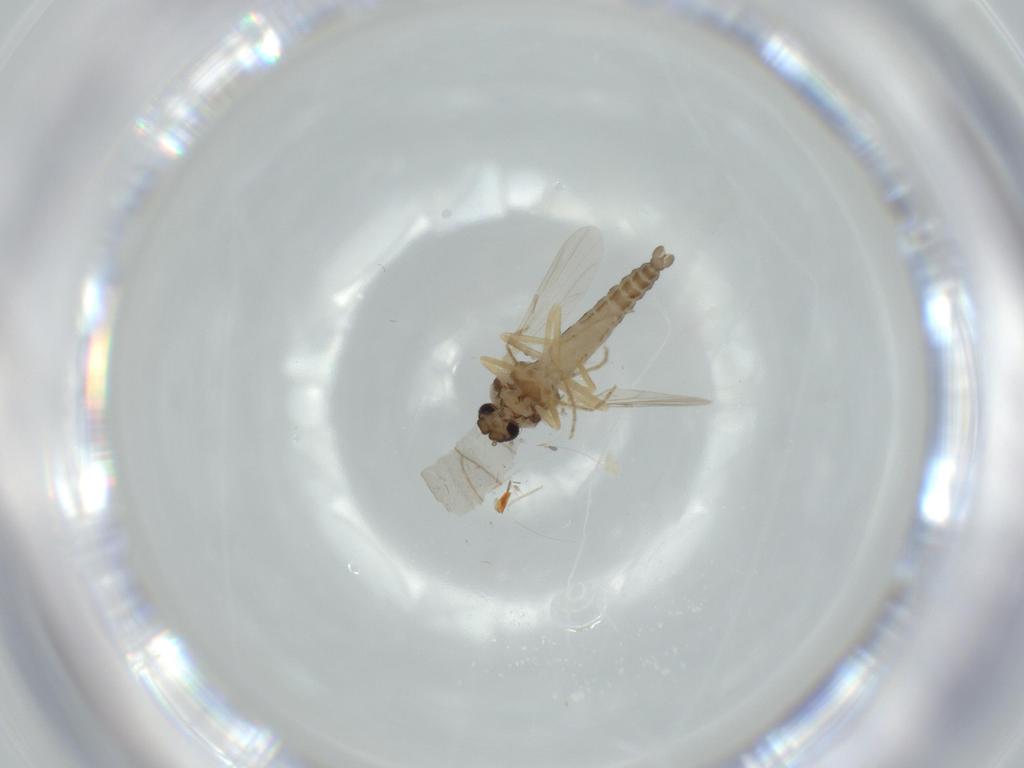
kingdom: Animalia
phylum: Arthropoda
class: Insecta
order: Diptera
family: Ceratopogonidae
